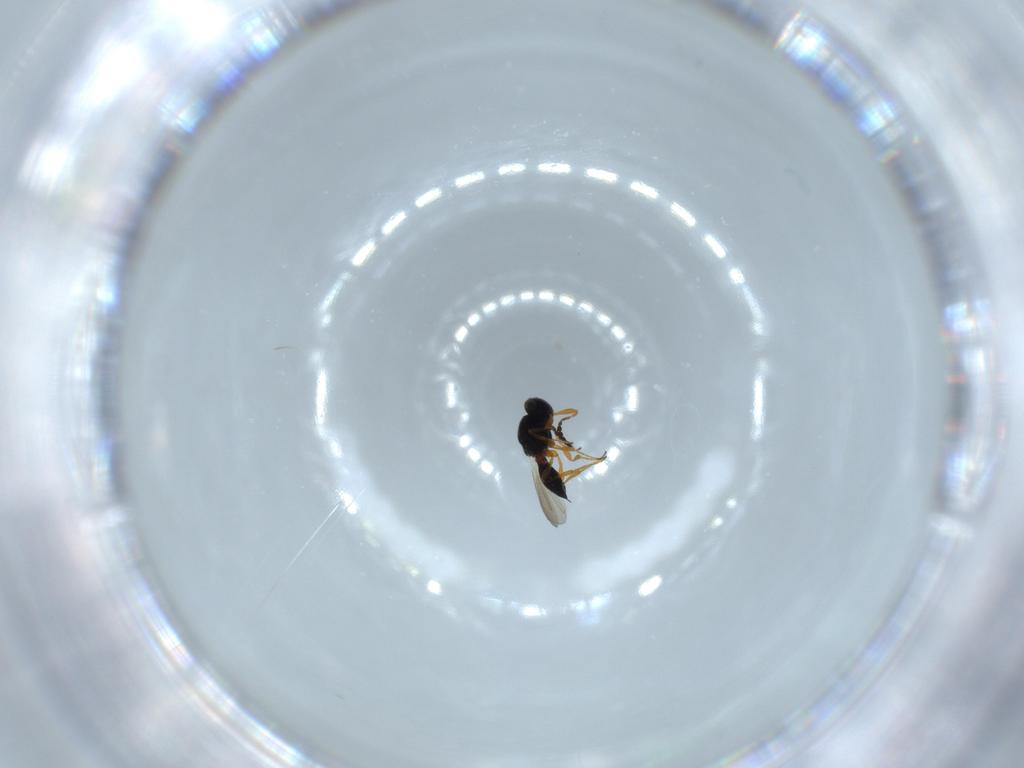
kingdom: Animalia
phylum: Arthropoda
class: Insecta
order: Hymenoptera
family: Platygastridae
